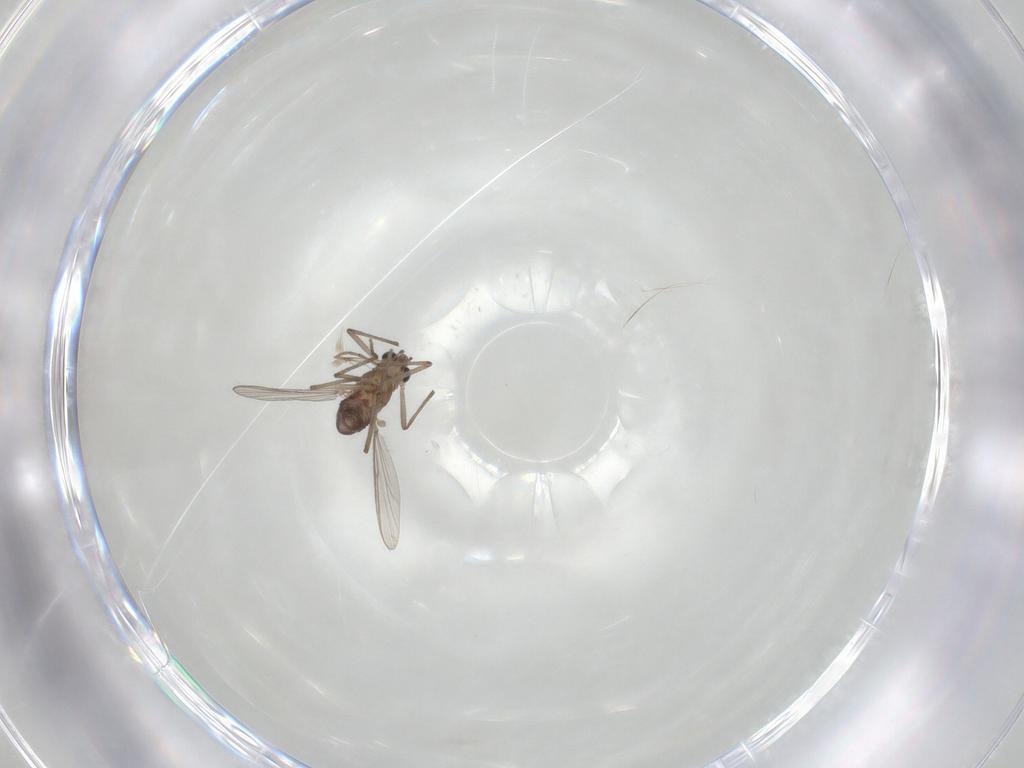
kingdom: Animalia
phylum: Arthropoda
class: Insecta
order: Diptera
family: Chironomidae
